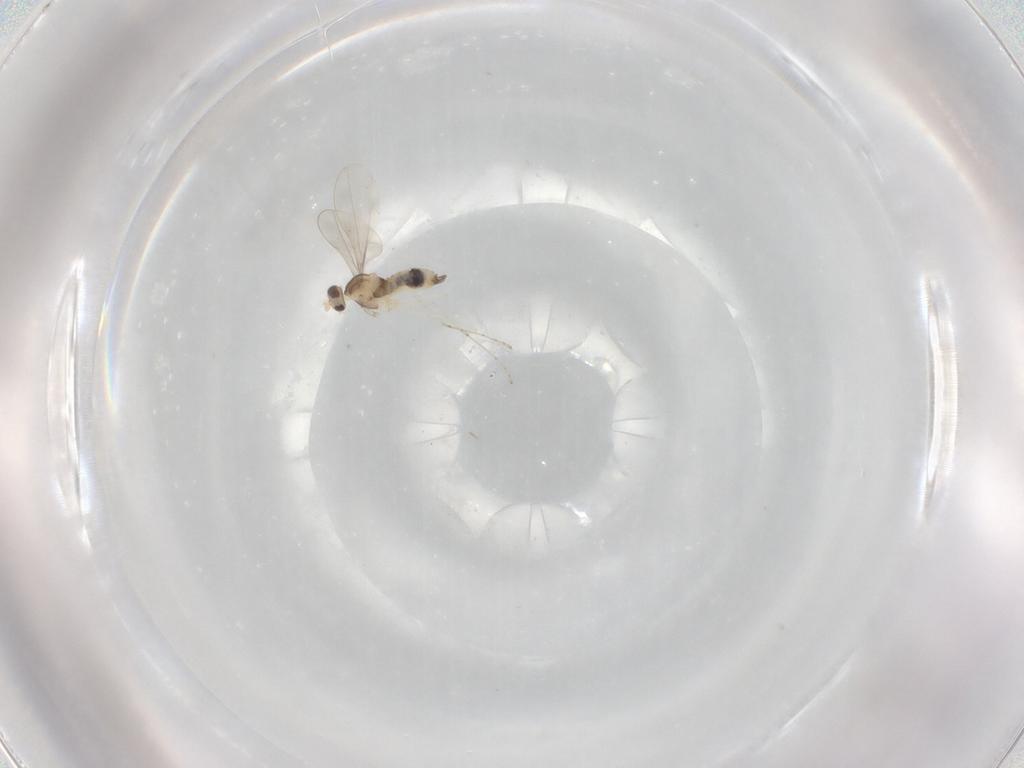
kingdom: Animalia
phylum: Arthropoda
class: Insecta
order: Diptera
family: Cecidomyiidae
